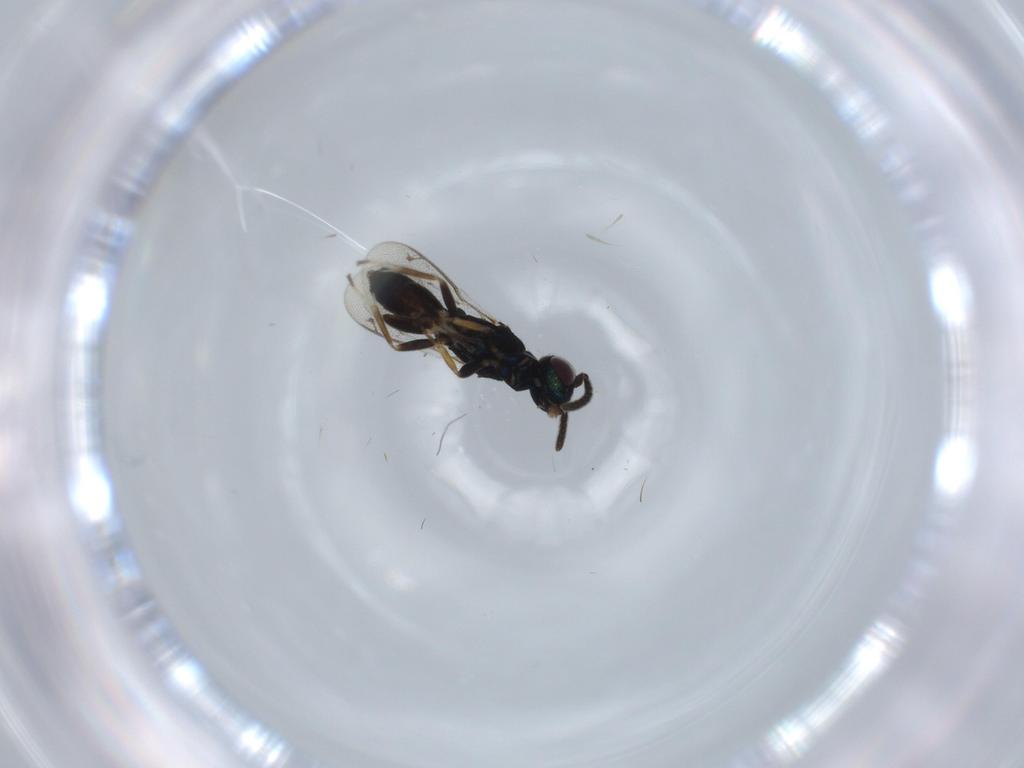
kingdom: Animalia
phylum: Arthropoda
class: Insecta
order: Hymenoptera
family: Eupelmidae
